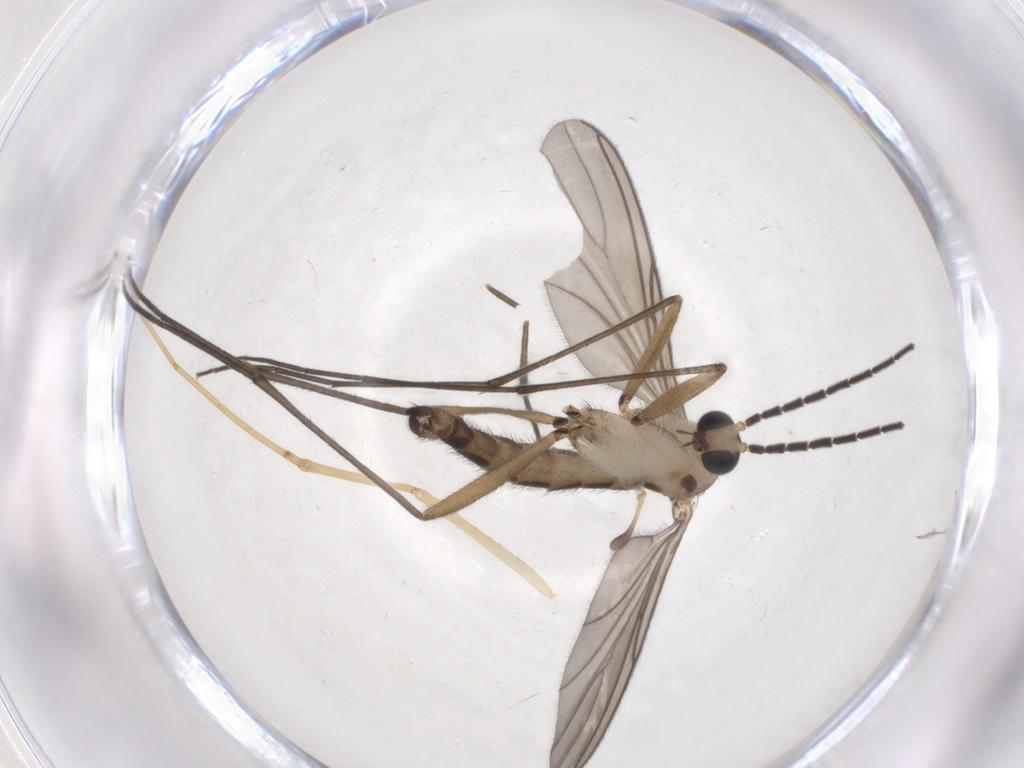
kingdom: Animalia
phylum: Arthropoda
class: Insecta
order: Diptera
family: Sciaridae
